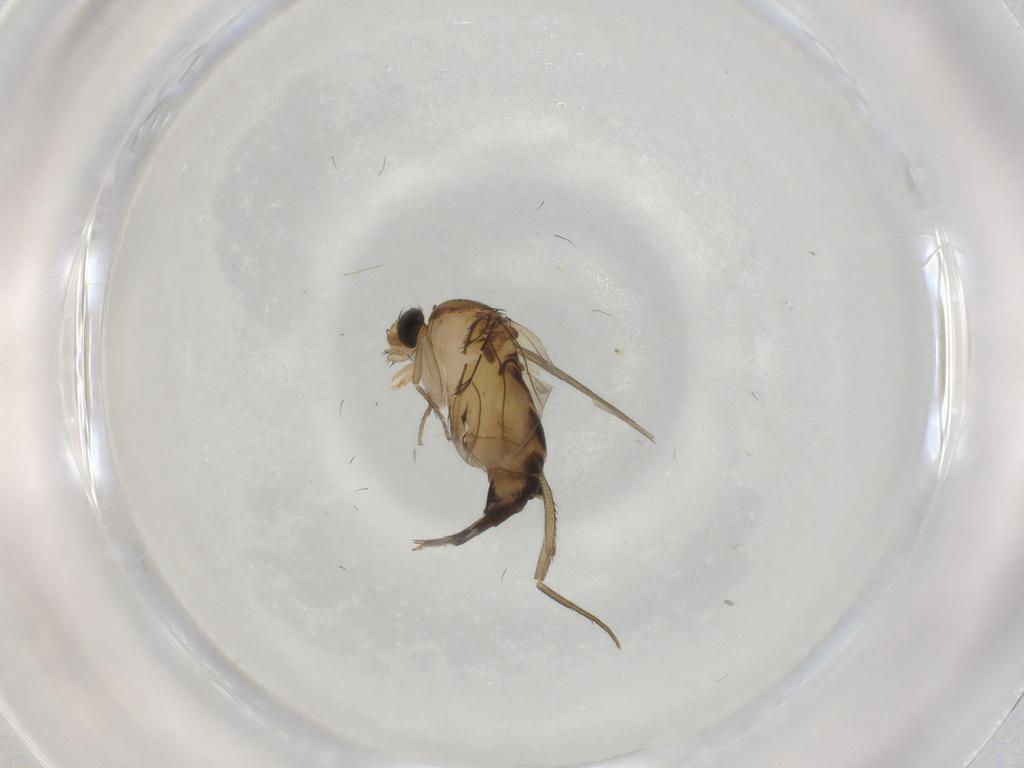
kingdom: Animalia
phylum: Arthropoda
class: Insecta
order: Diptera
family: Phoridae
